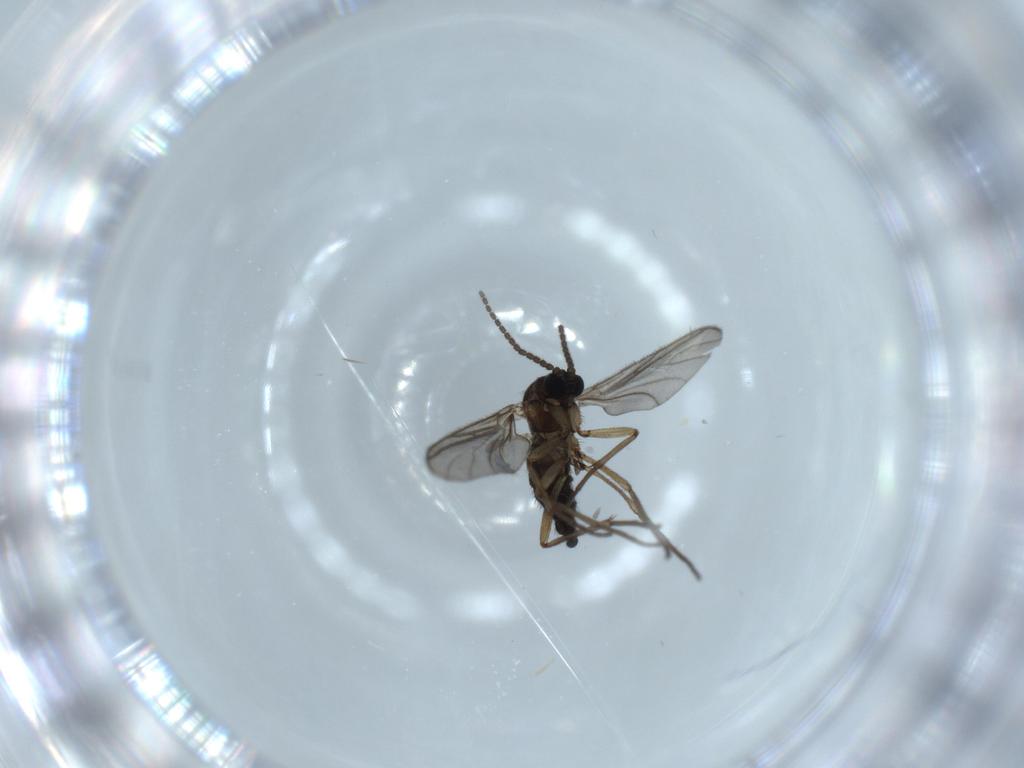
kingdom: Animalia
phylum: Arthropoda
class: Insecta
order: Diptera
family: Sciaridae
